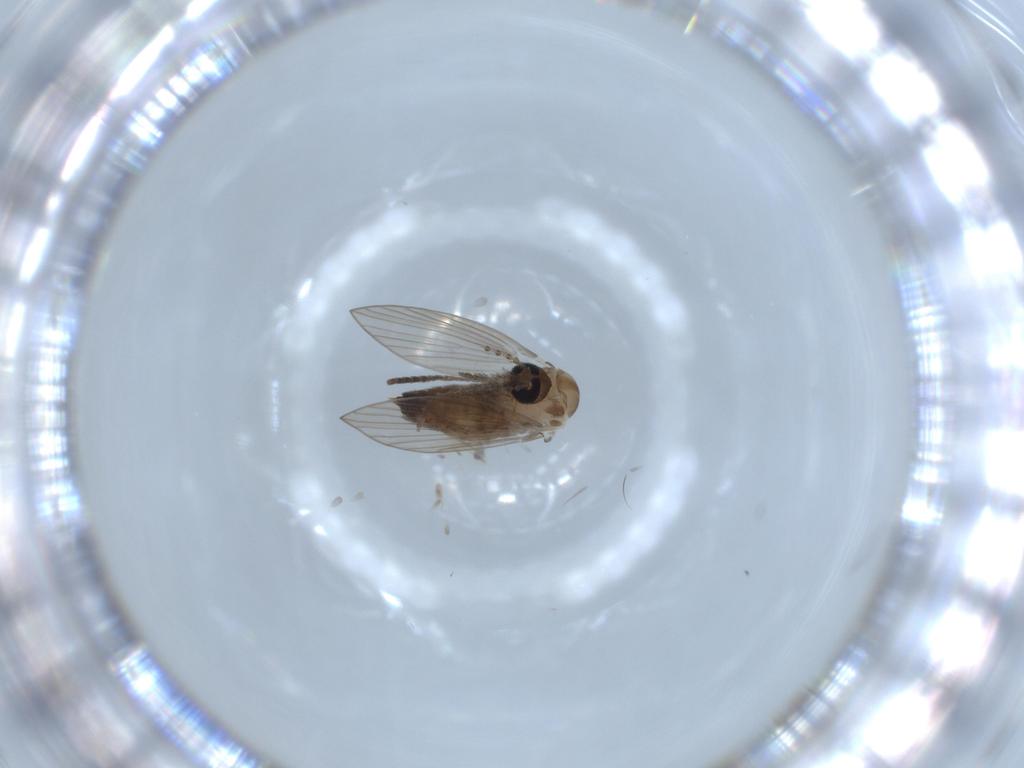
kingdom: Animalia
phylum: Arthropoda
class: Insecta
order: Diptera
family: Psychodidae
